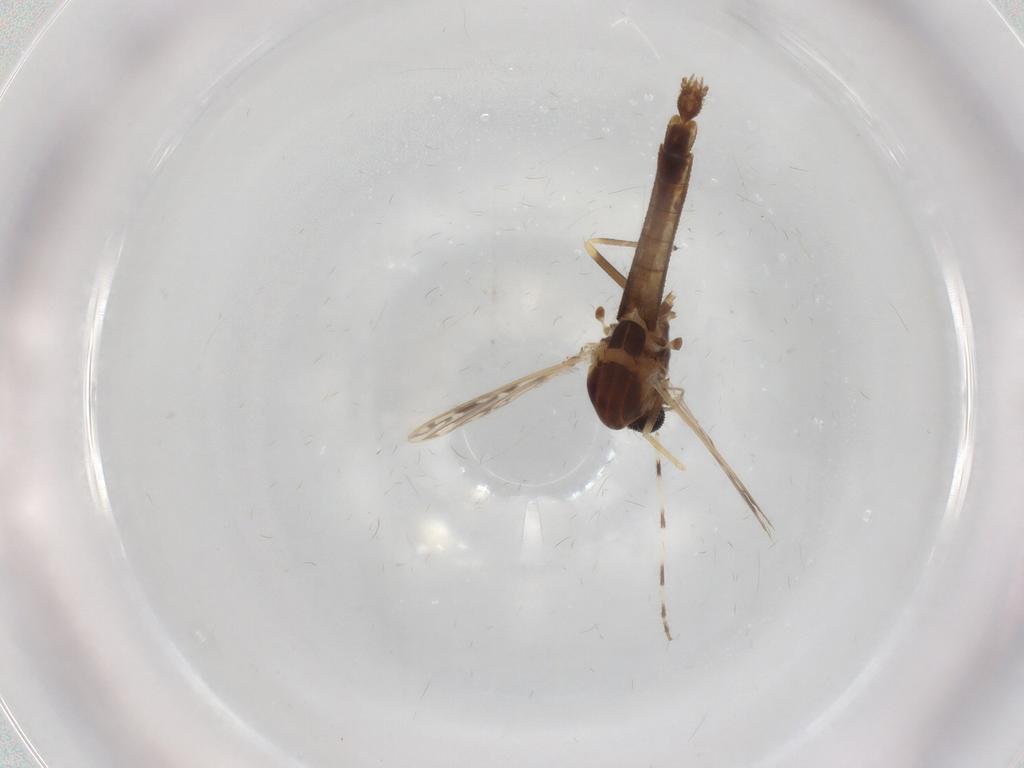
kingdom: Animalia
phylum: Arthropoda
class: Insecta
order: Diptera
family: Chironomidae
